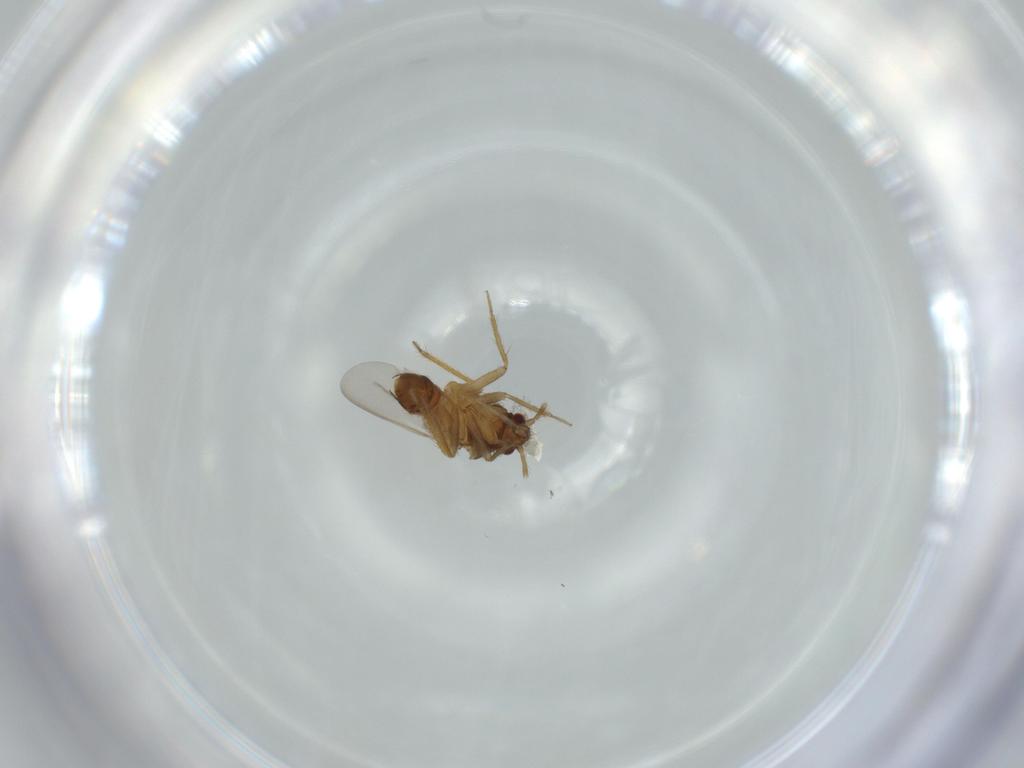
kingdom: Animalia
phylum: Arthropoda
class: Insecta
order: Hemiptera
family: Ceratocombidae
